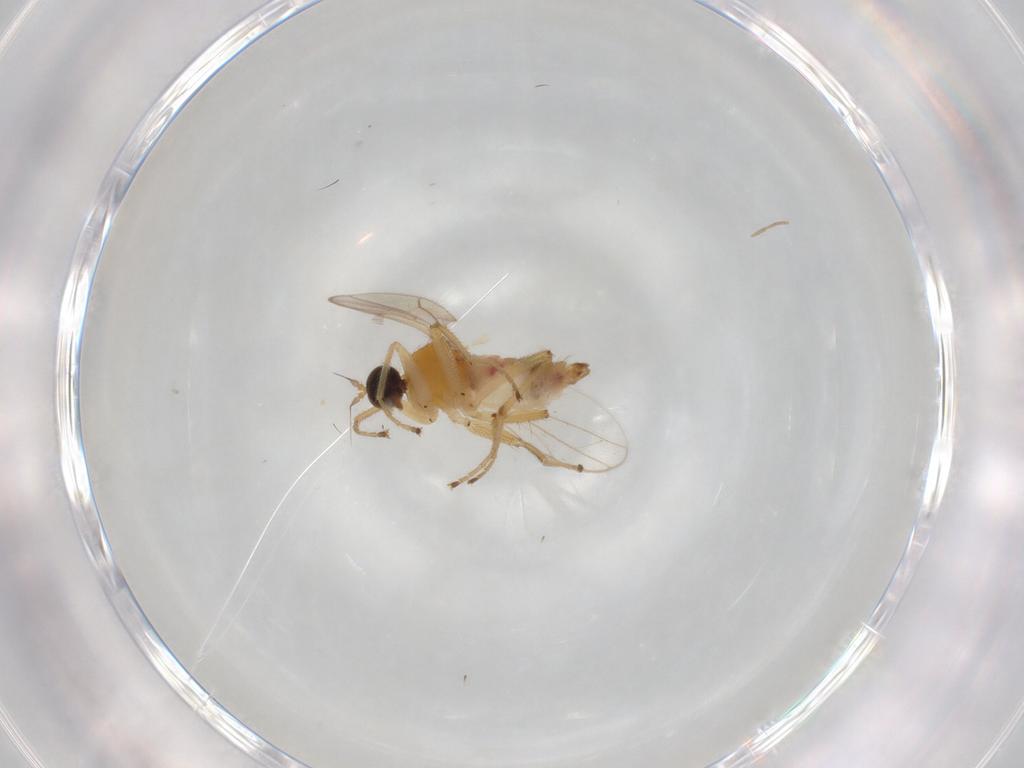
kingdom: Animalia
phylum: Arthropoda
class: Insecta
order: Diptera
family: Hybotidae
